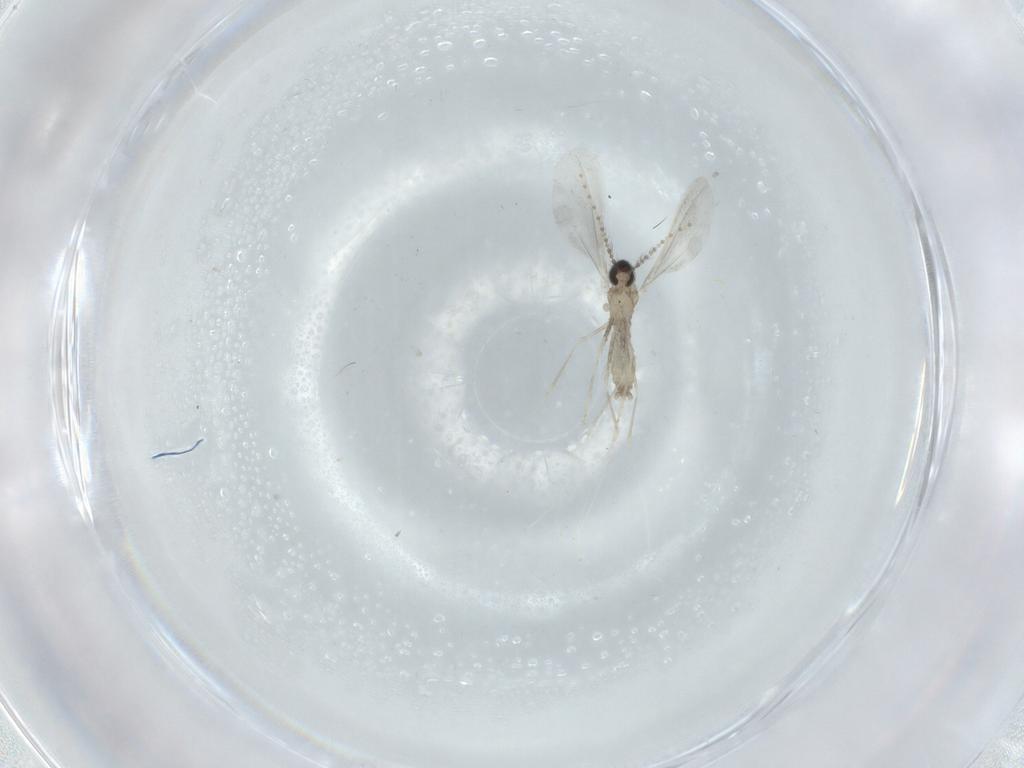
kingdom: Animalia
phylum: Arthropoda
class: Insecta
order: Diptera
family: Cecidomyiidae
